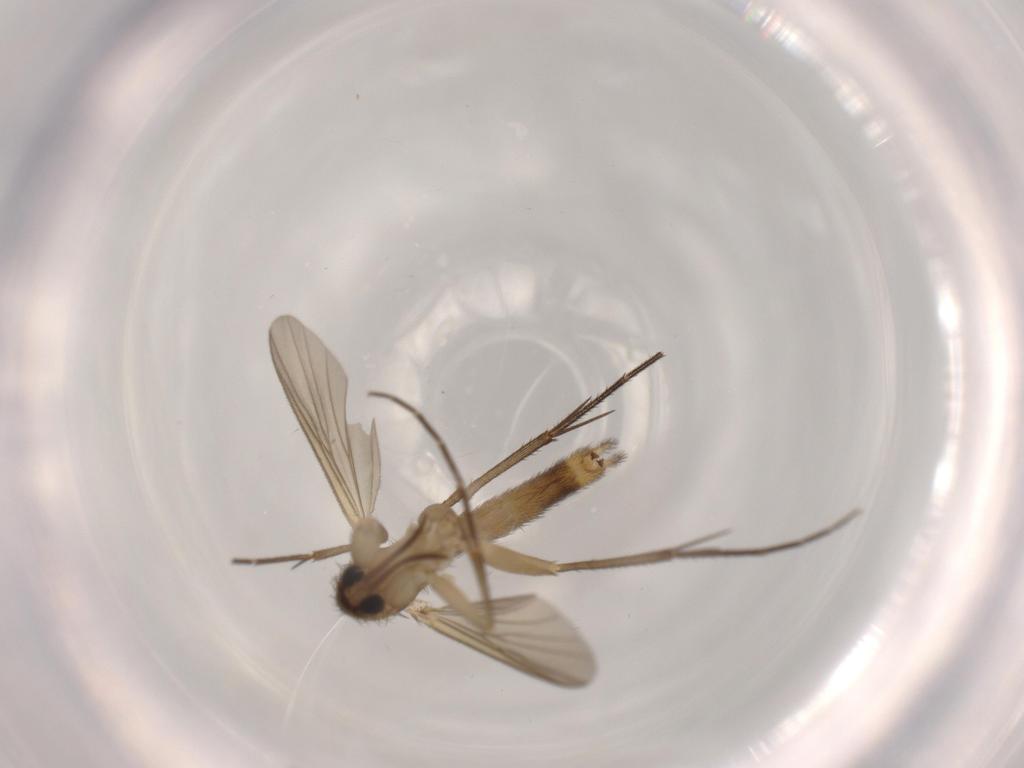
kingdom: Animalia
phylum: Arthropoda
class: Insecta
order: Diptera
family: Mycetophilidae
